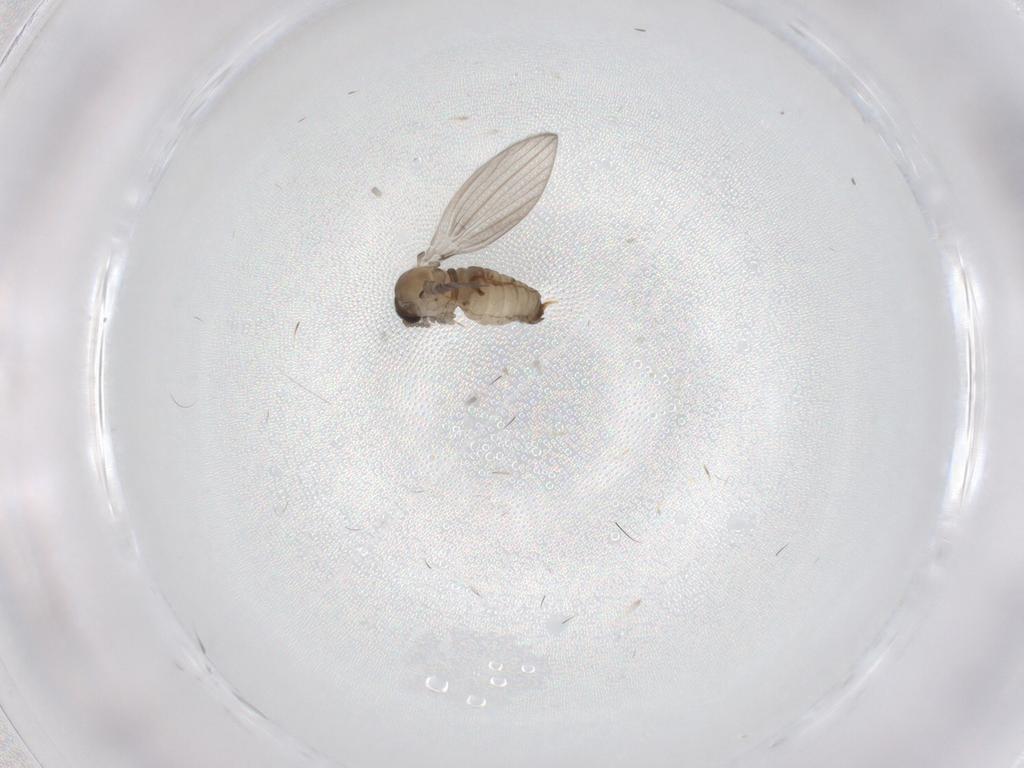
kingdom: Animalia
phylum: Arthropoda
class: Insecta
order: Diptera
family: Psychodidae
